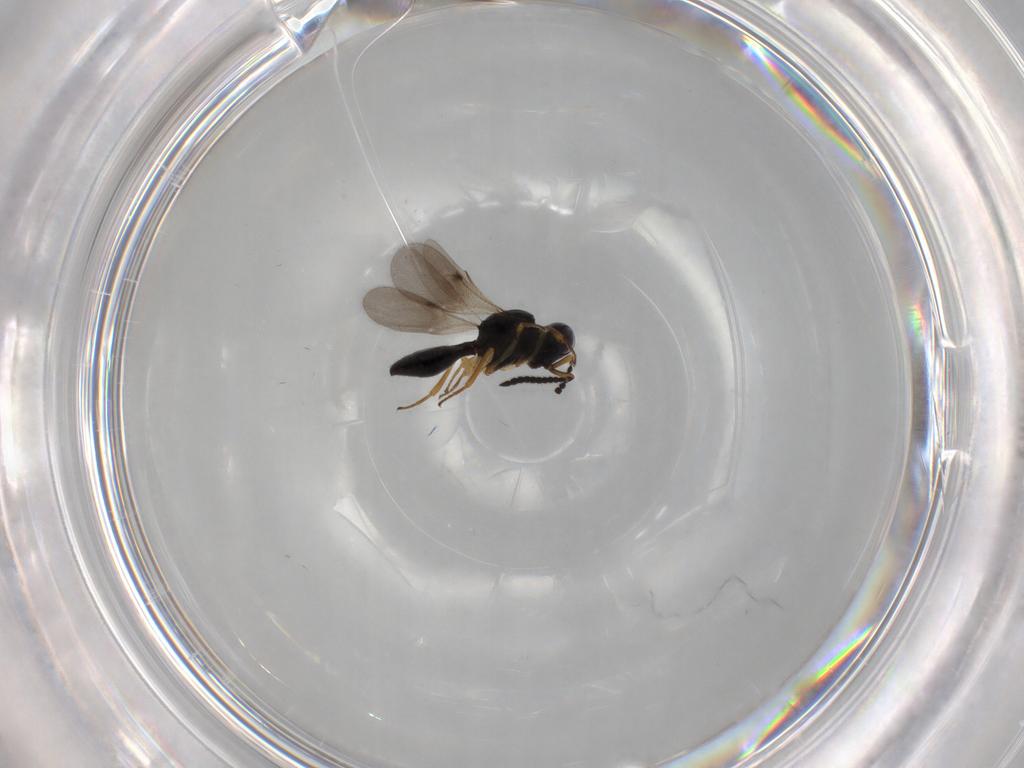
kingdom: Animalia
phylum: Arthropoda
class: Insecta
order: Hymenoptera
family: Scelionidae
